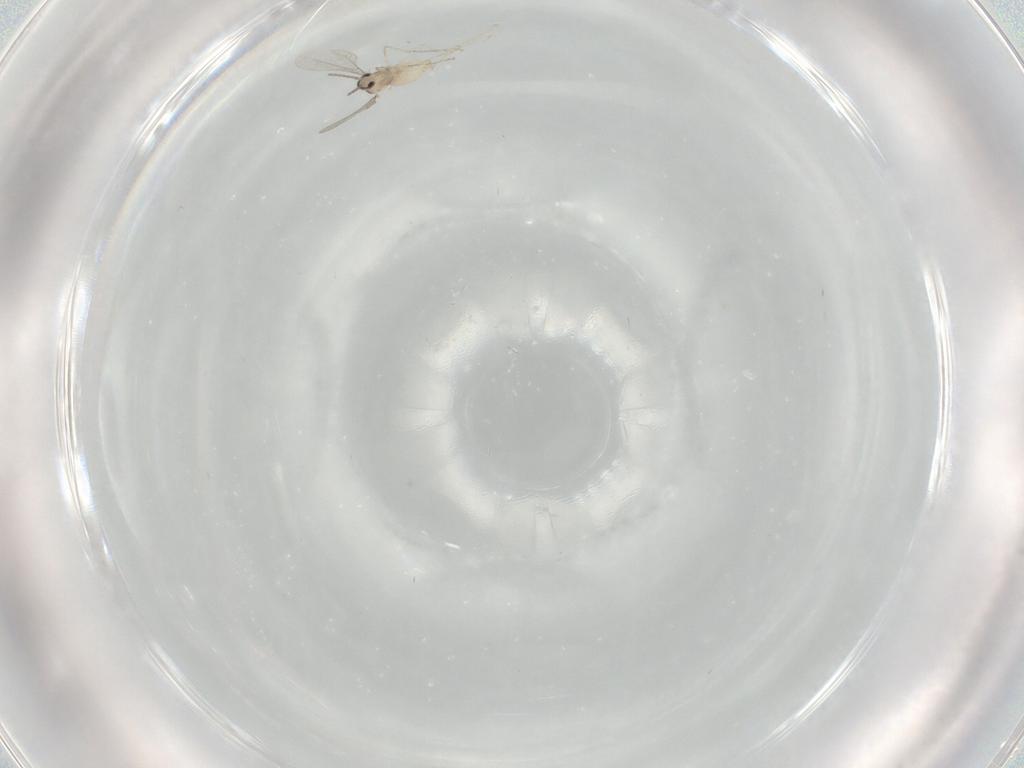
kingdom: Animalia
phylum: Arthropoda
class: Insecta
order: Diptera
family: Cecidomyiidae
